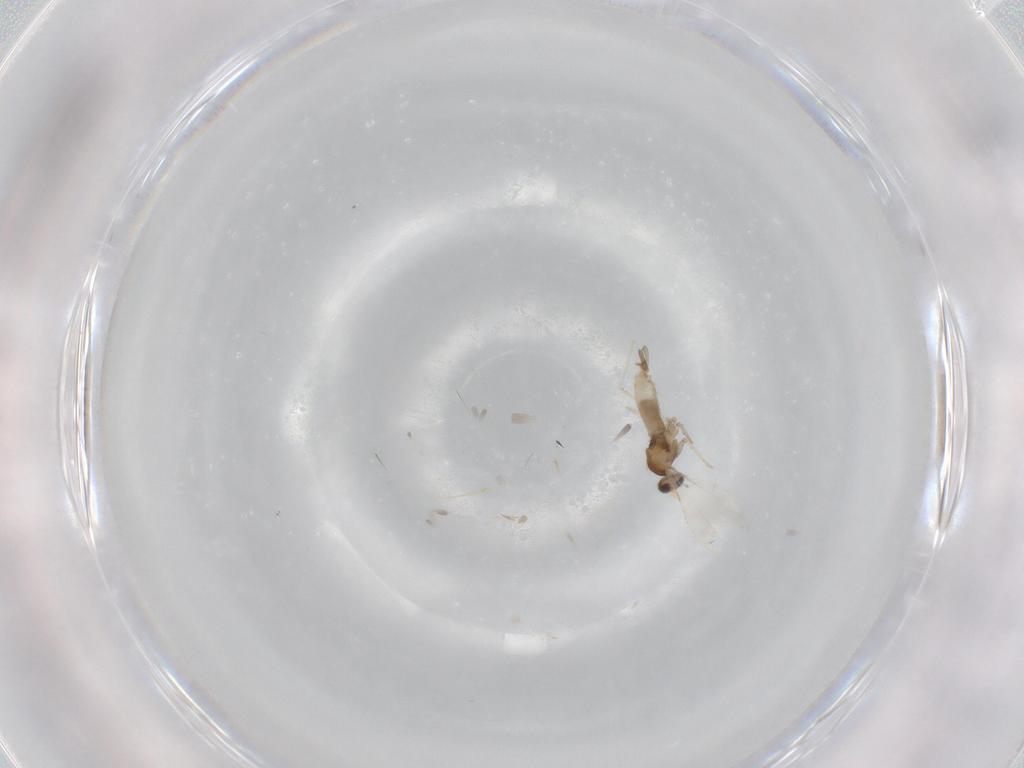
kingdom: Animalia
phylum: Arthropoda
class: Insecta
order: Diptera
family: Cecidomyiidae
